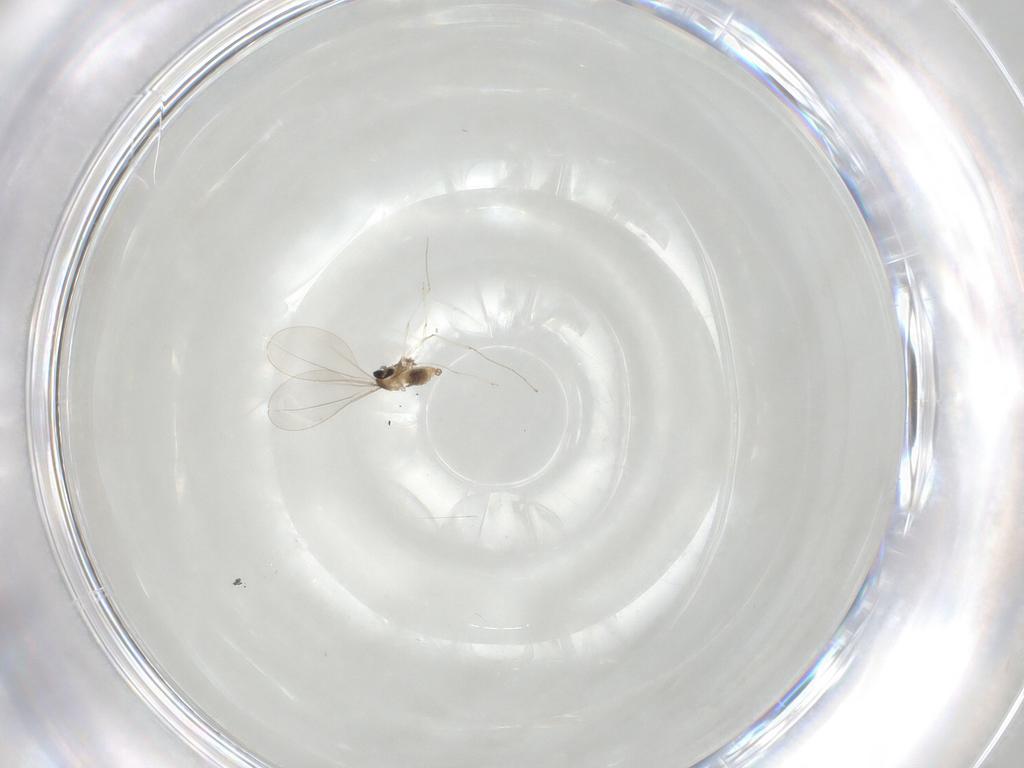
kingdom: Animalia
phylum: Arthropoda
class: Insecta
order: Diptera
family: Cecidomyiidae
